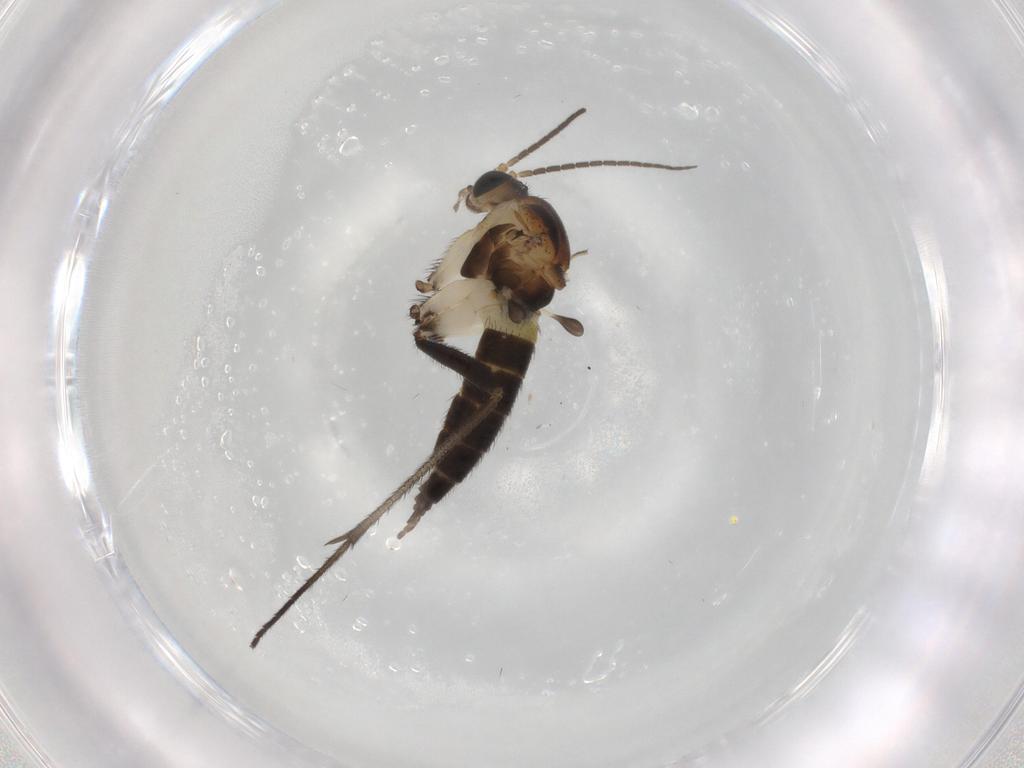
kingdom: Animalia
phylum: Arthropoda
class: Insecta
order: Diptera
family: Sciaridae
